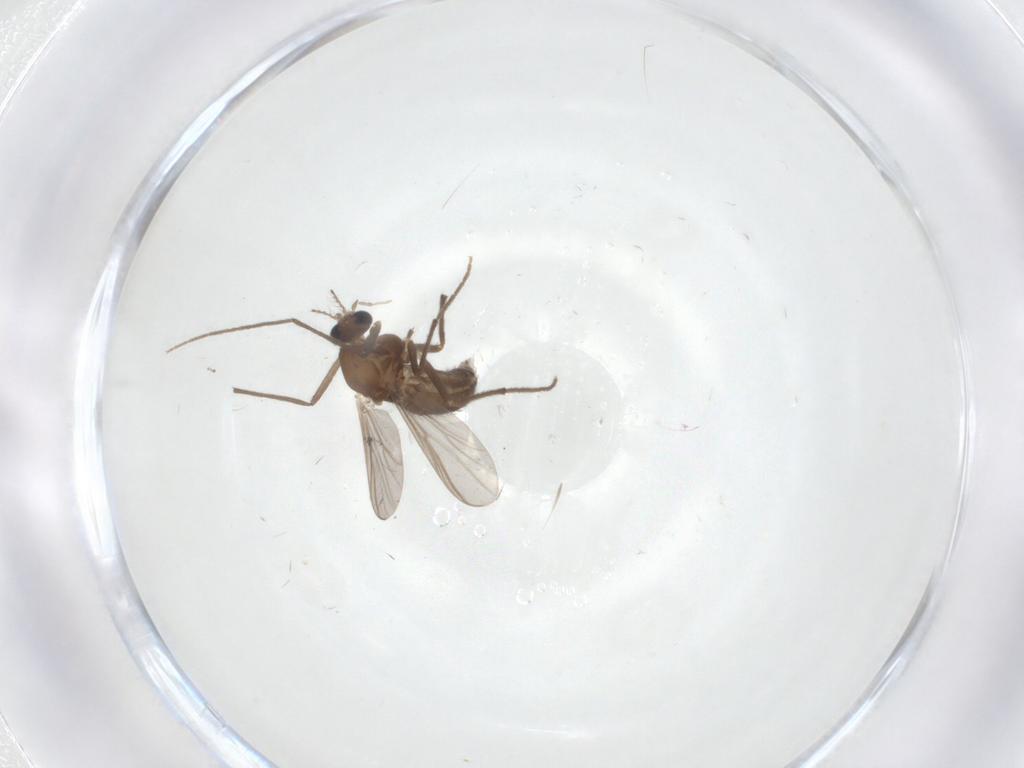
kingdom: Animalia
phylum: Arthropoda
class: Insecta
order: Diptera
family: Chironomidae
